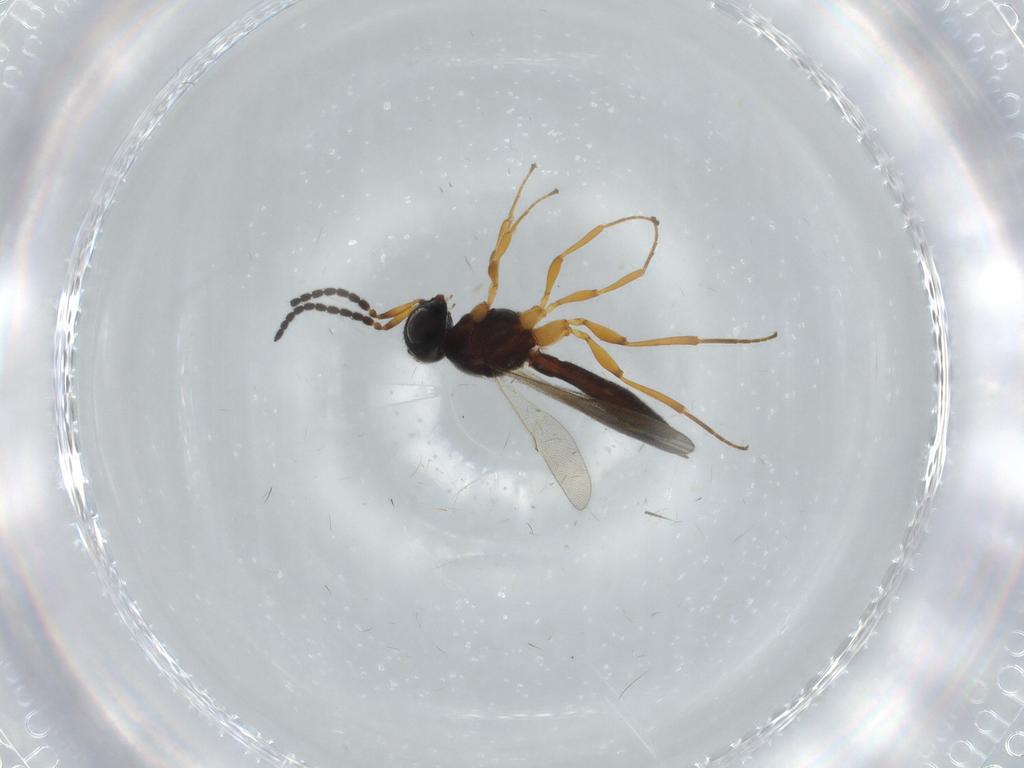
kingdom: Animalia
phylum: Arthropoda
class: Insecta
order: Hymenoptera
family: Scelionidae
